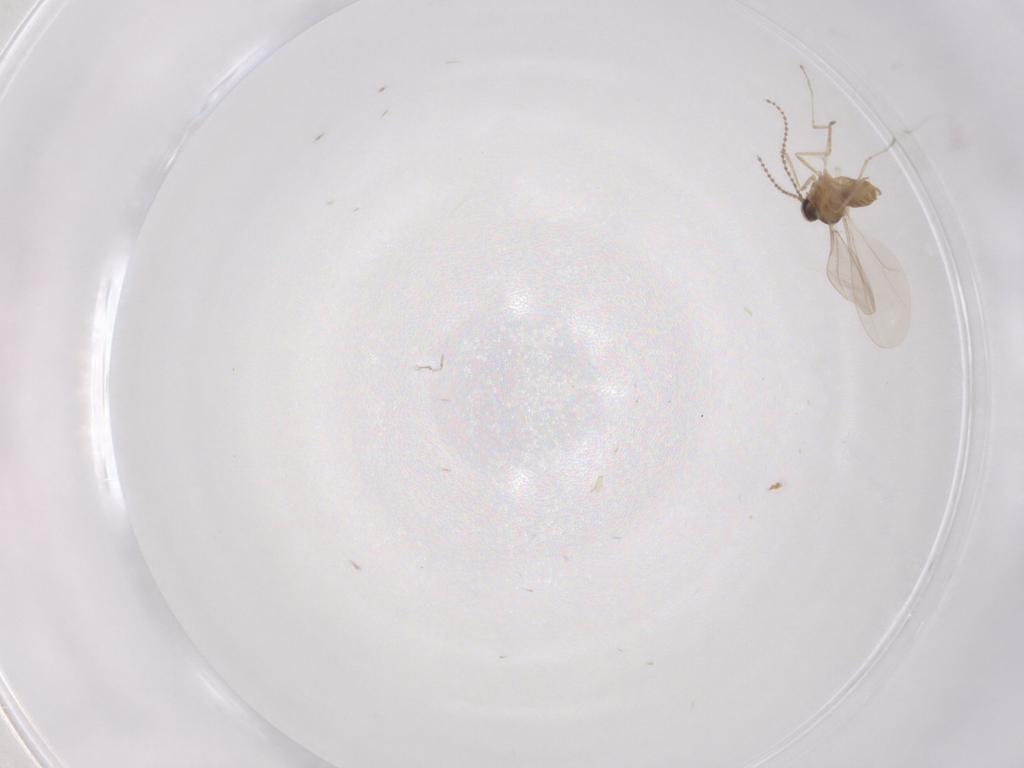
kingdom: Animalia
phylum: Arthropoda
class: Insecta
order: Diptera
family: Cecidomyiidae
